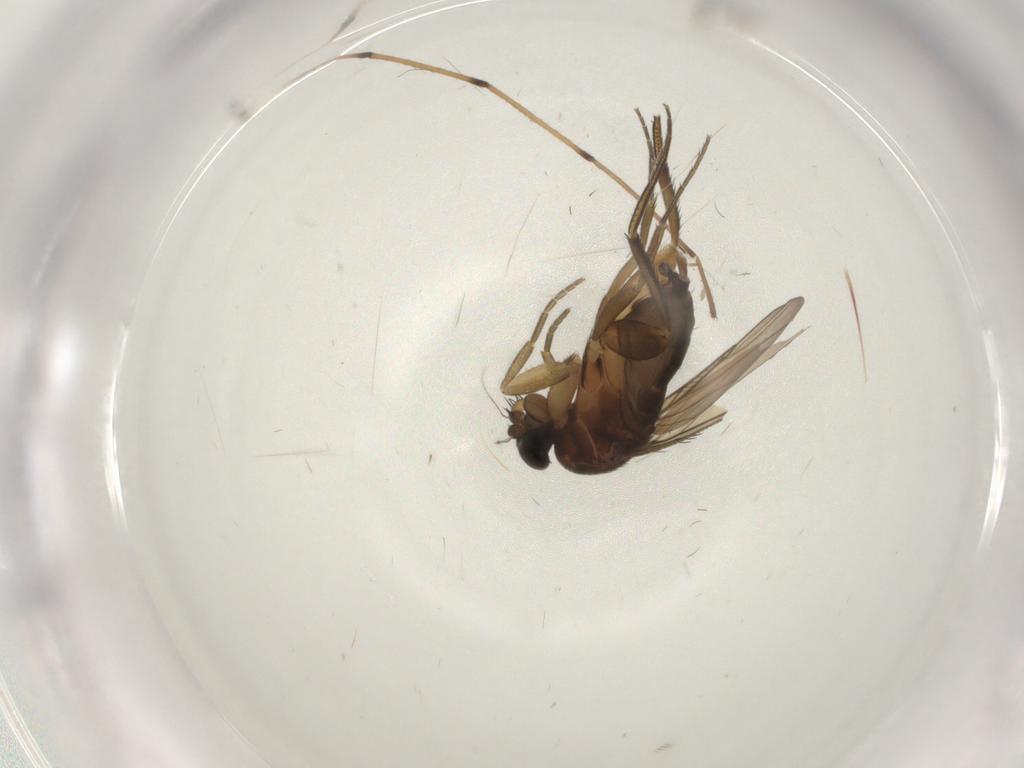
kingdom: Animalia
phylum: Arthropoda
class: Insecta
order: Diptera
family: Phoridae
